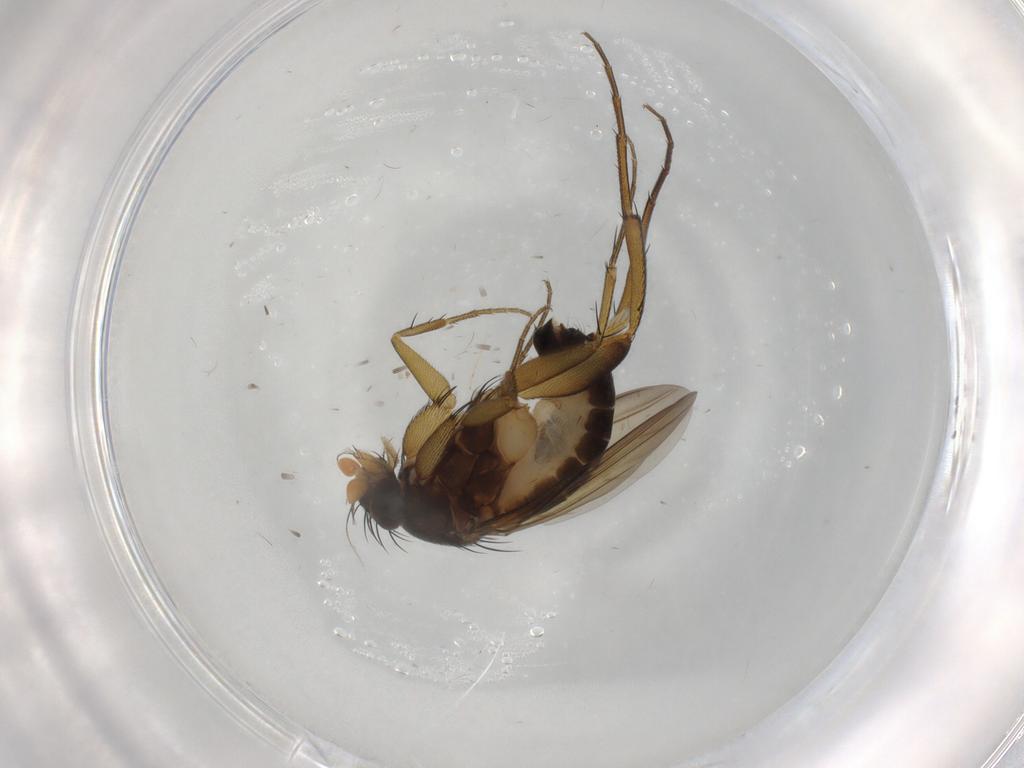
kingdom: Animalia
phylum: Arthropoda
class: Insecta
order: Diptera
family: Phoridae
